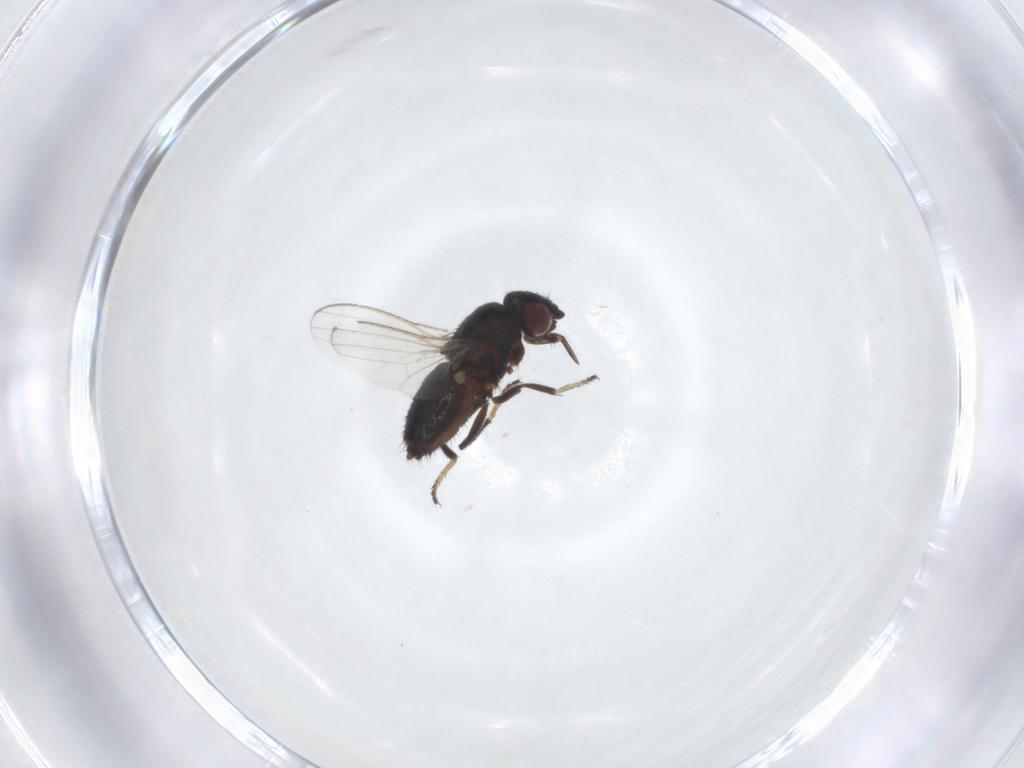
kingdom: Animalia
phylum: Arthropoda
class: Insecta
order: Diptera
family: Milichiidae
